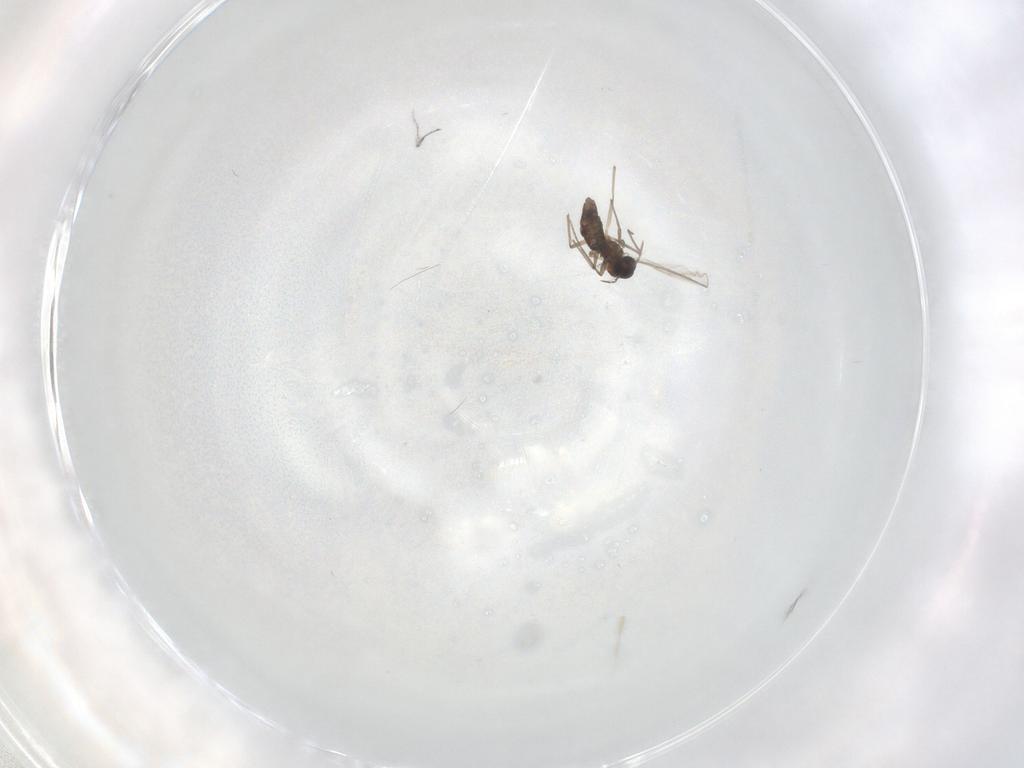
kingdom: Animalia
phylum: Arthropoda
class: Insecta
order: Diptera
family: Chironomidae
